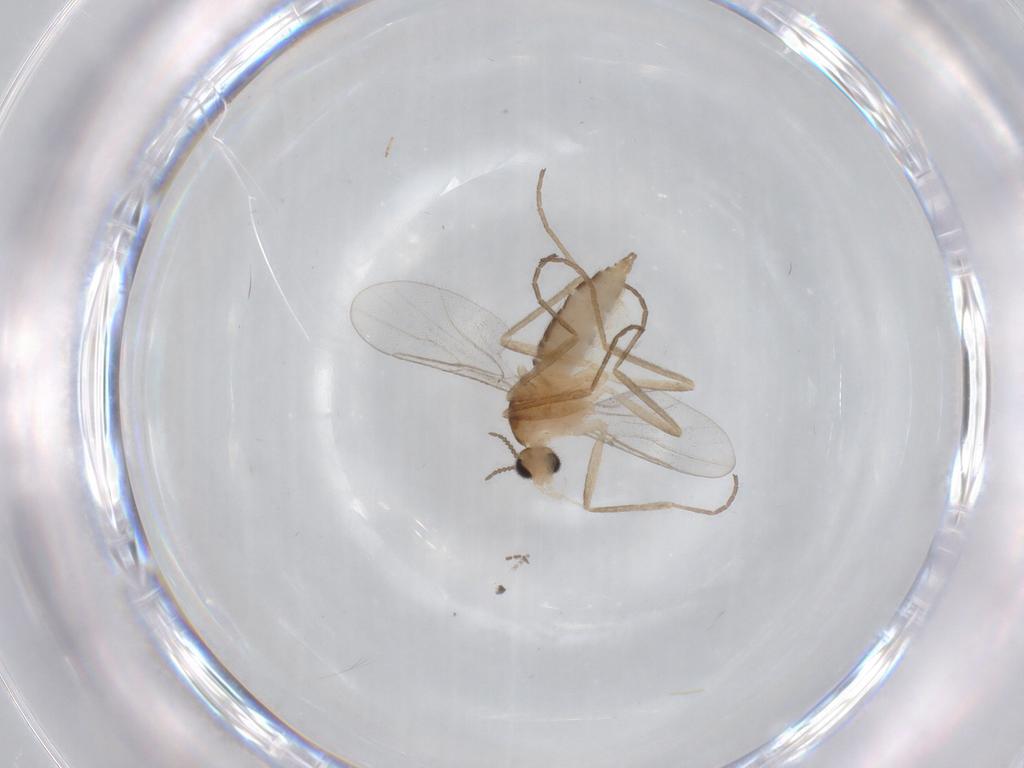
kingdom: Animalia
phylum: Arthropoda
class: Insecta
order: Diptera
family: Cecidomyiidae
